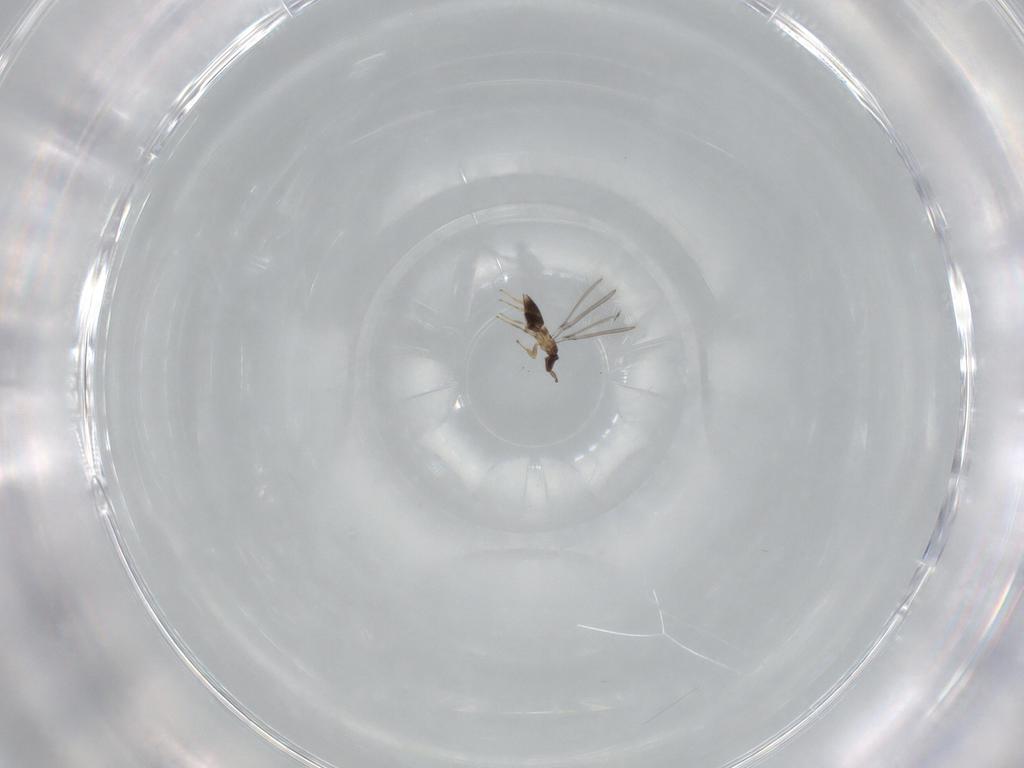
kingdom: Animalia
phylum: Arthropoda
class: Insecta
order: Hymenoptera
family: Mymaridae
